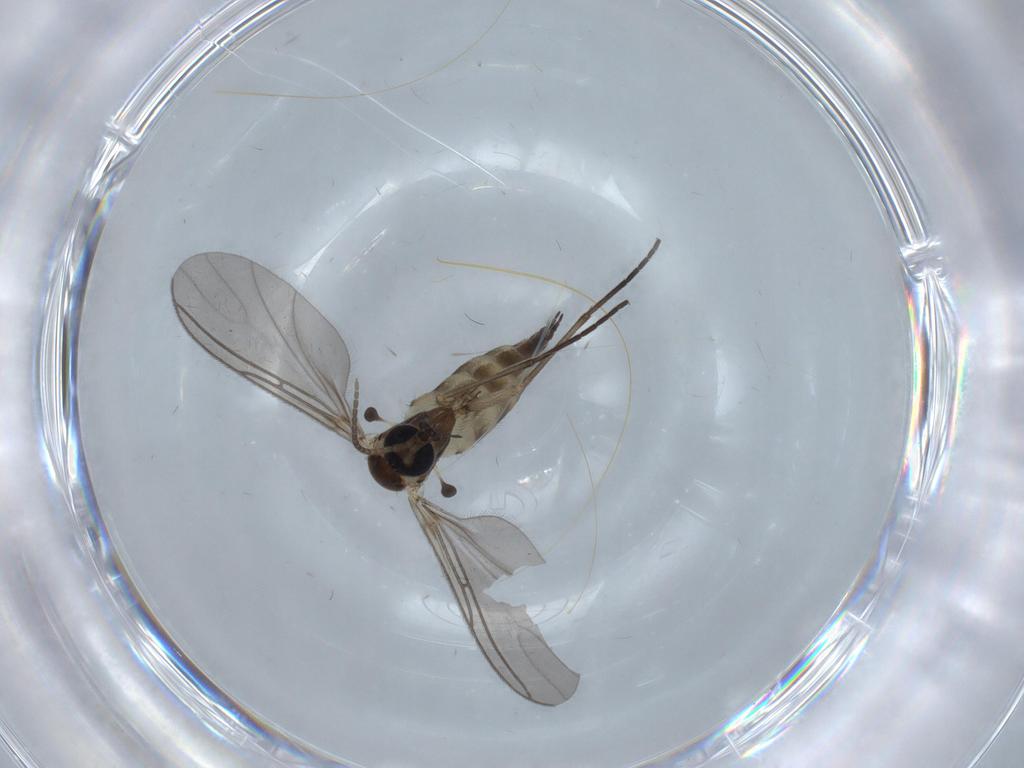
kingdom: Animalia
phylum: Arthropoda
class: Insecta
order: Diptera
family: Sciaridae
